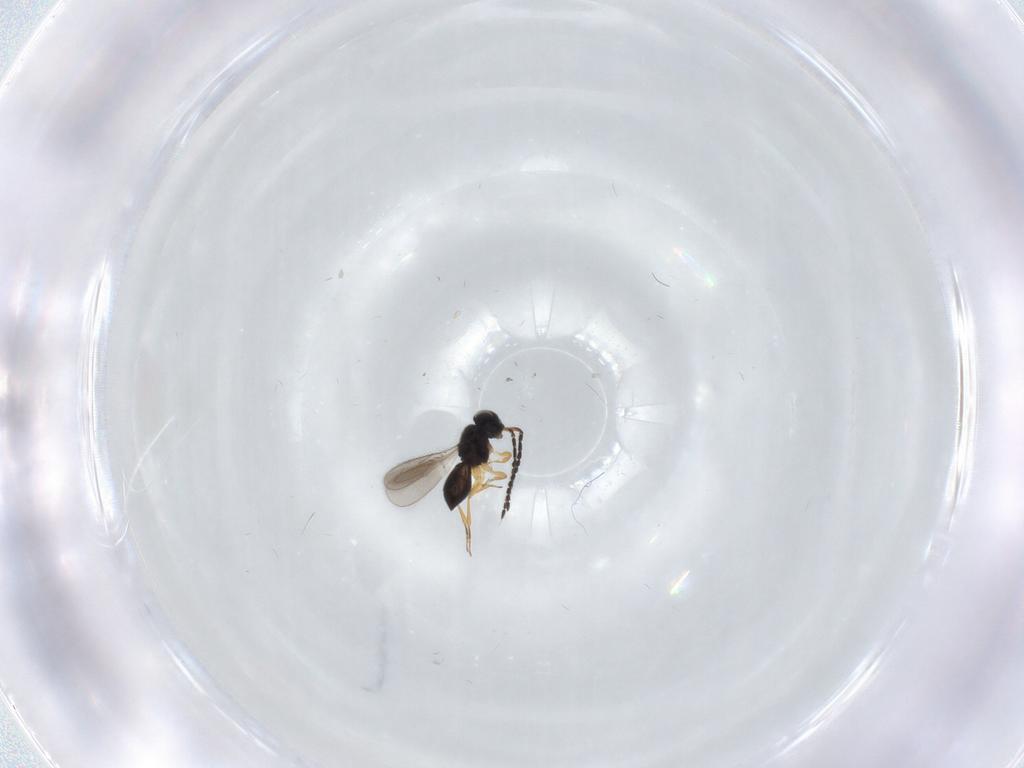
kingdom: Animalia
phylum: Arthropoda
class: Insecta
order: Hymenoptera
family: Scelionidae
